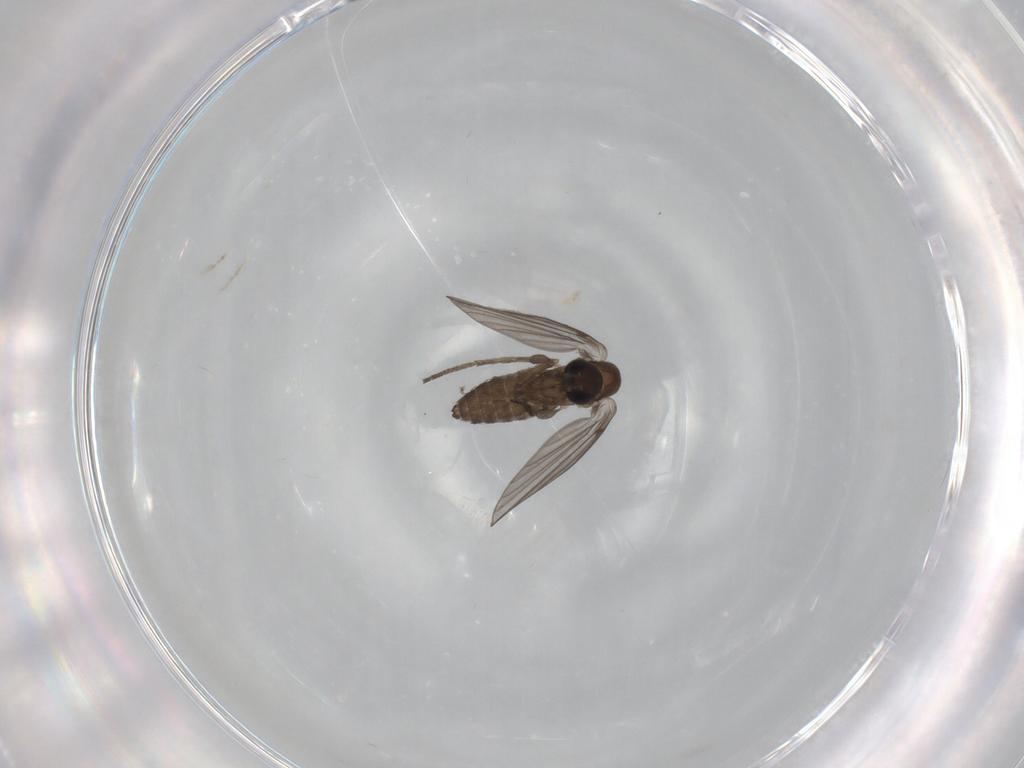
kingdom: Animalia
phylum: Arthropoda
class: Insecta
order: Diptera
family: Psychodidae
